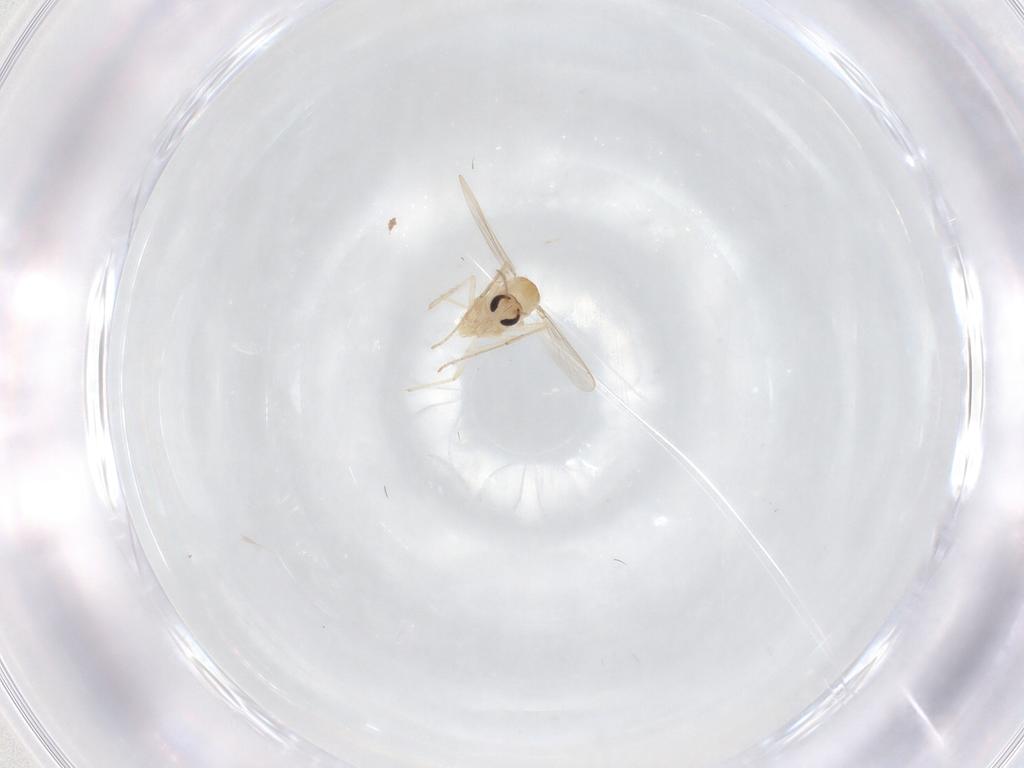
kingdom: Animalia
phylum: Arthropoda
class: Insecta
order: Diptera
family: Chironomidae
